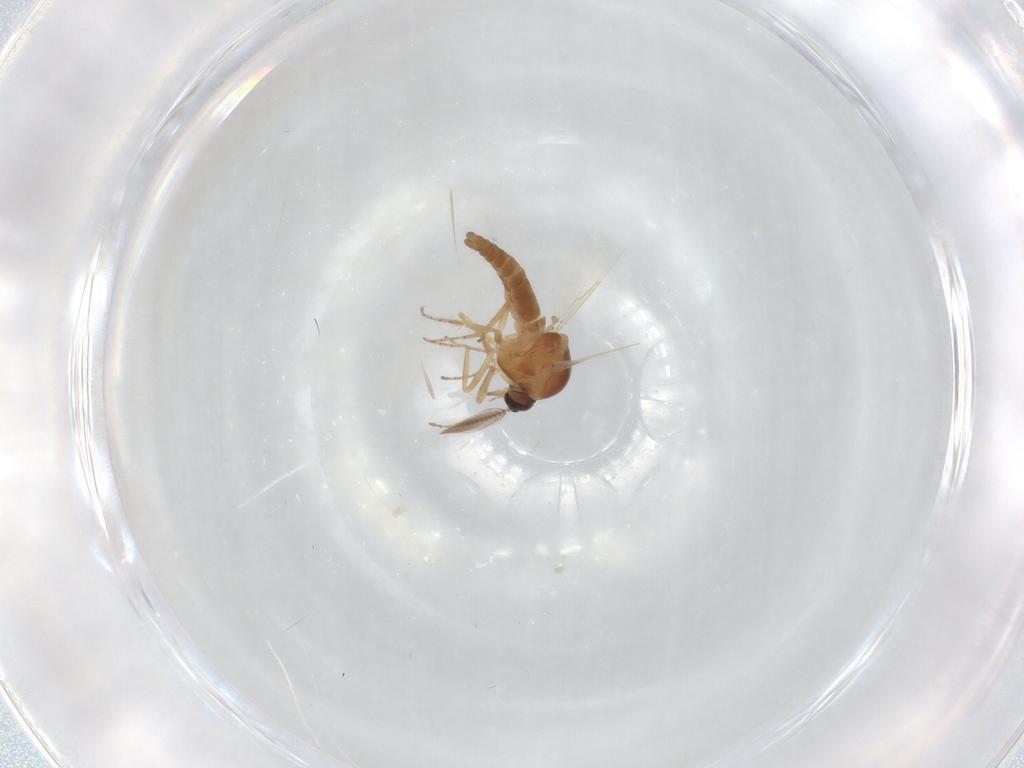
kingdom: Animalia
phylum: Arthropoda
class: Insecta
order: Diptera
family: Ceratopogonidae
